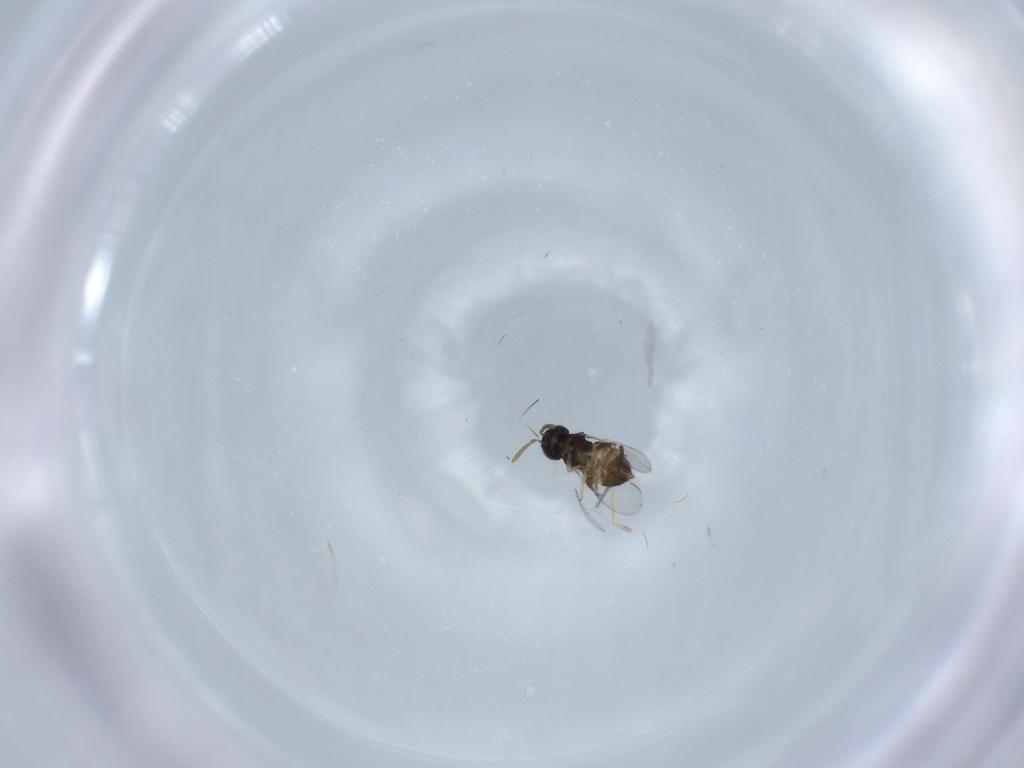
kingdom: Animalia
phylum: Arthropoda
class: Insecta
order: Hymenoptera
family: Encyrtidae
